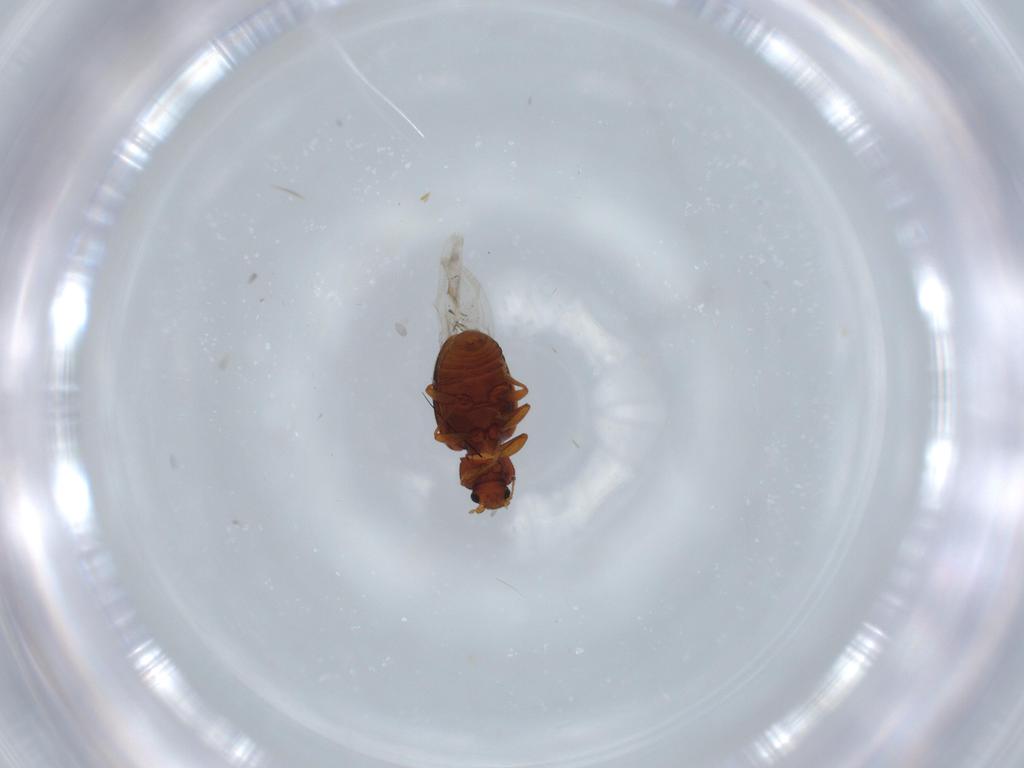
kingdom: Animalia
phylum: Arthropoda
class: Insecta
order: Coleoptera
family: Latridiidae
